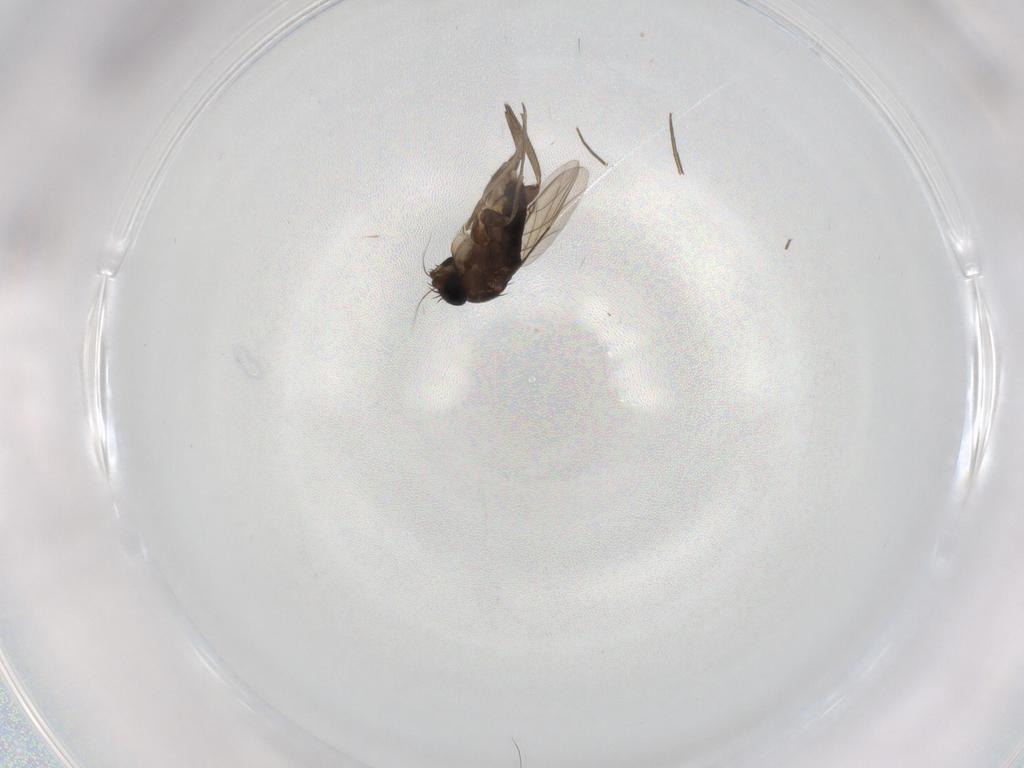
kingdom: Animalia
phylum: Arthropoda
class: Insecta
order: Diptera
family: Phoridae
